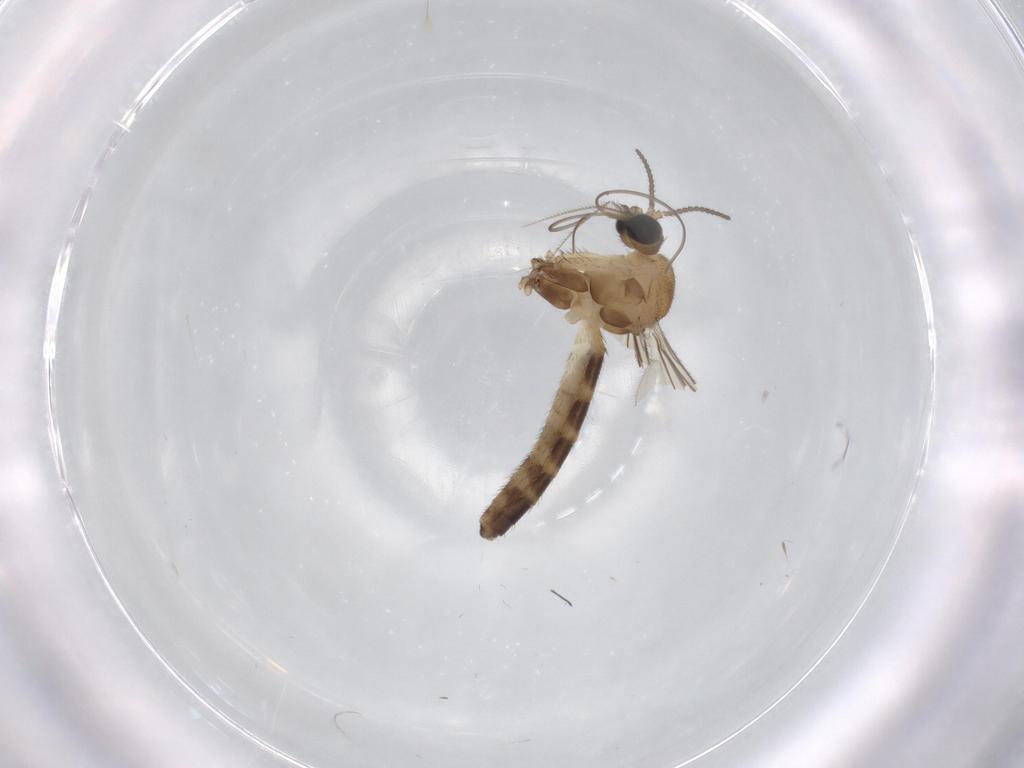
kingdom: Animalia
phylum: Arthropoda
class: Insecta
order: Diptera
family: Keroplatidae
